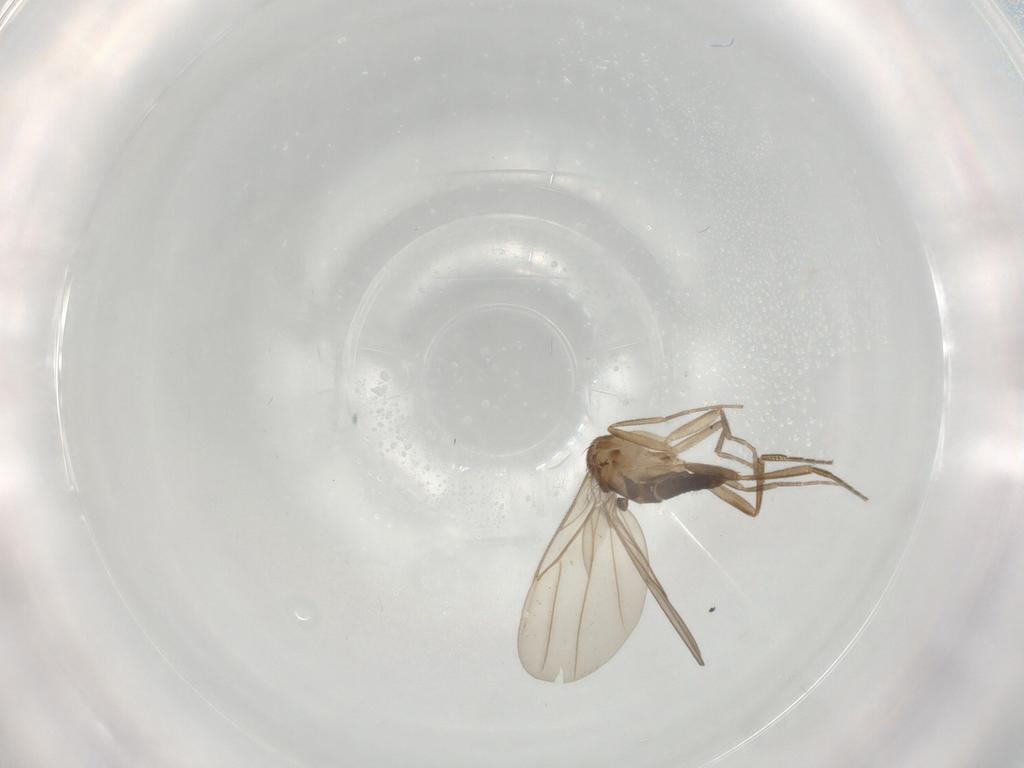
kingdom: Animalia
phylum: Arthropoda
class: Insecta
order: Diptera
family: Cecidomyiidae
